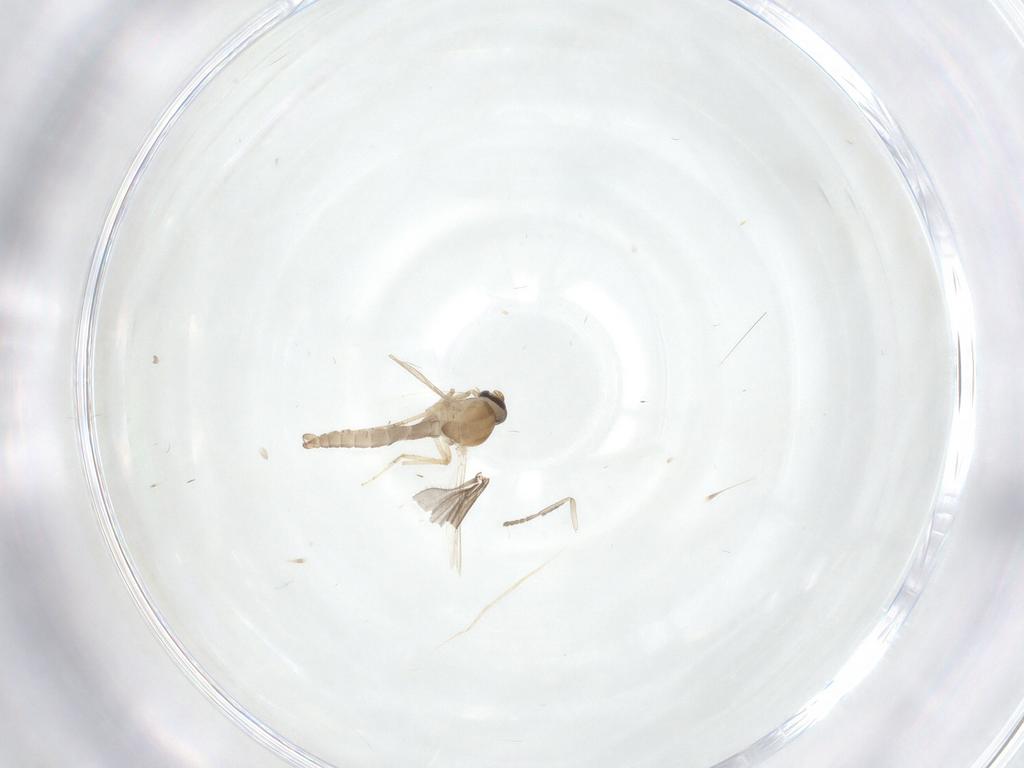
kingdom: Animalia
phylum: Arthropoda
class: Insecta
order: Diptera
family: Ceratopogonidae
